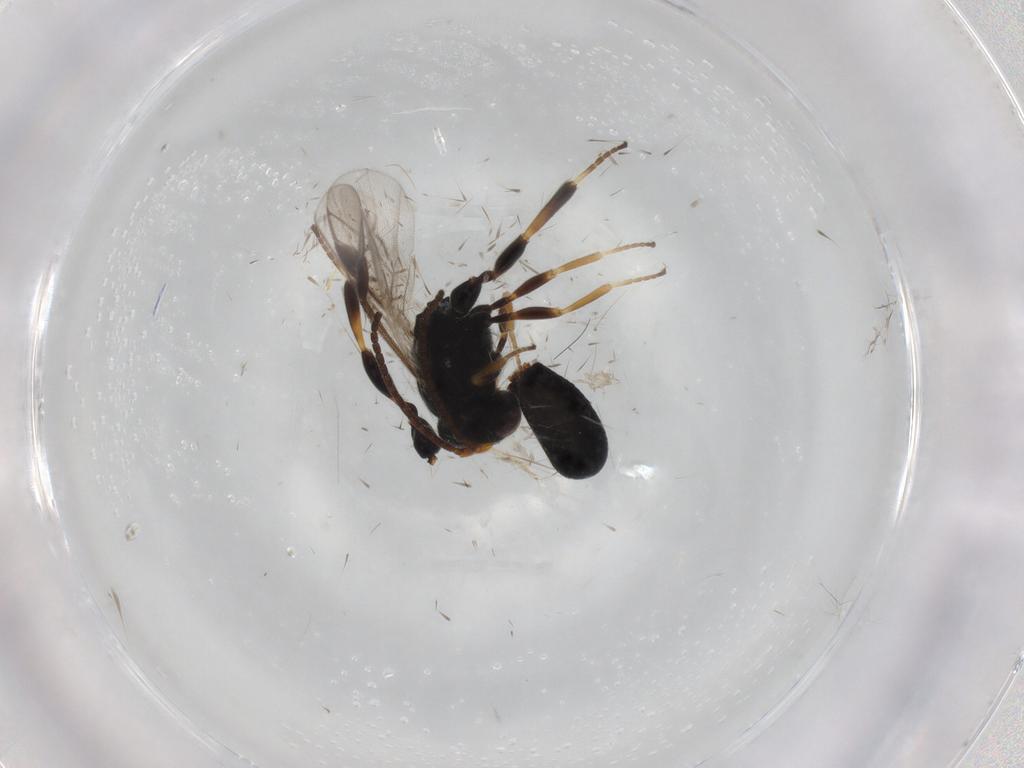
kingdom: Animalia
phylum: Arthropoda
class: Insecta
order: Hymenoptera
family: Braconidae
